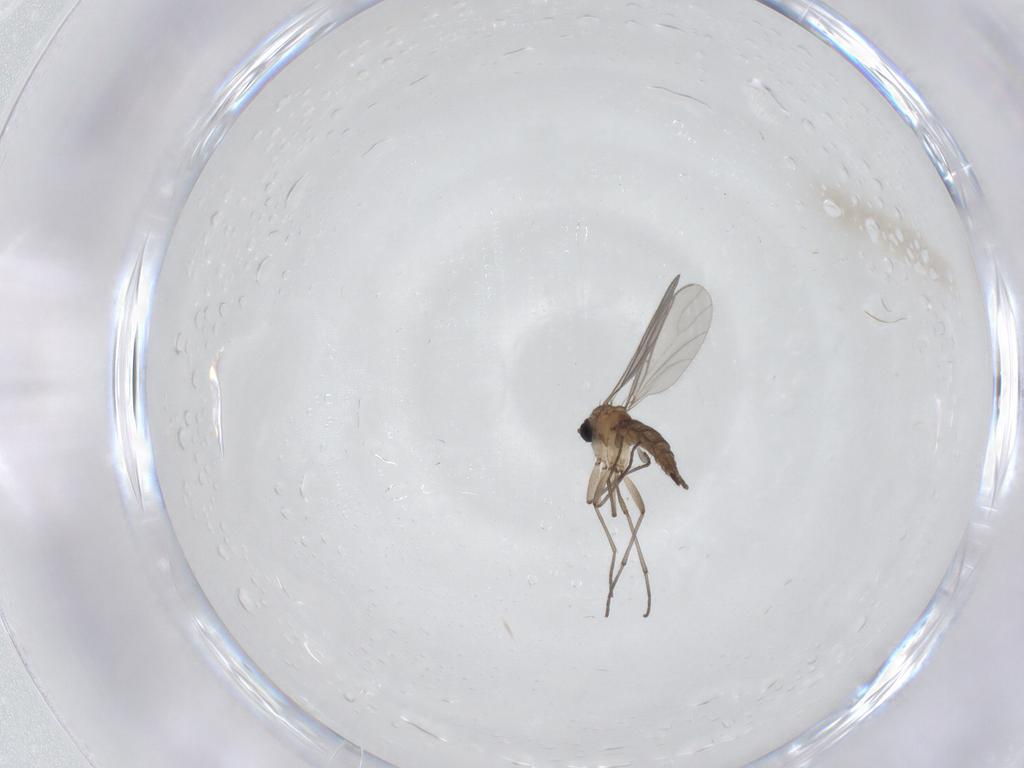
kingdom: Animalia
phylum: Arthropoda
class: Insecta
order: Diptera
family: Sciaridae
